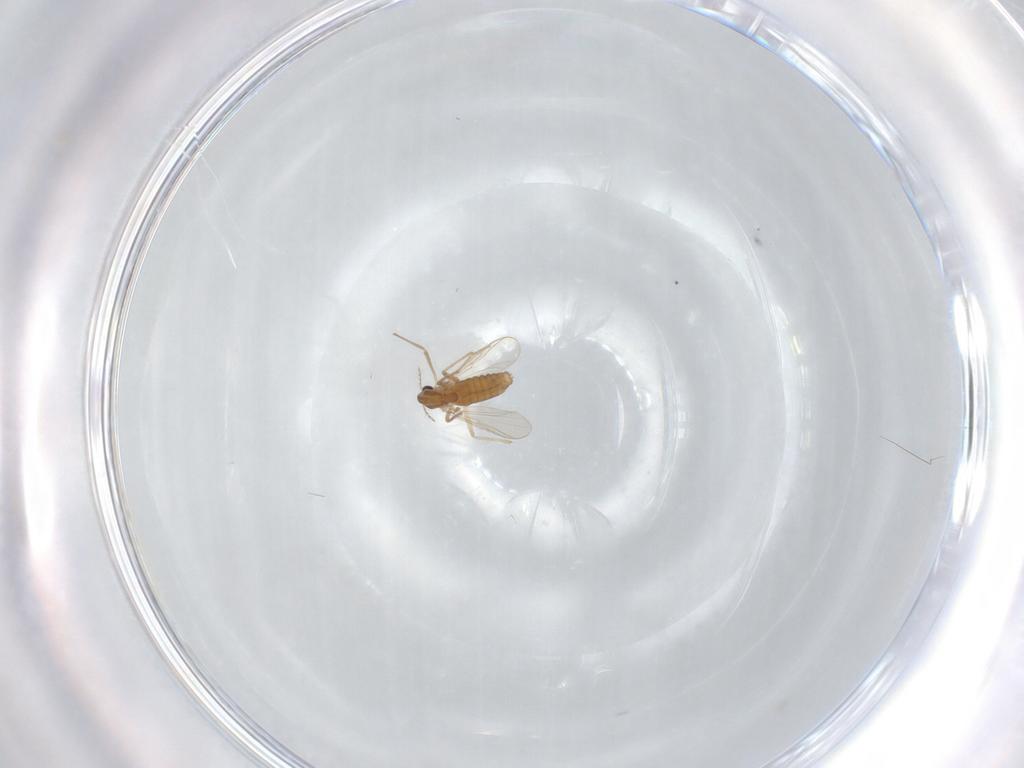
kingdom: Animalia
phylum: Arthropoda
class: Insecta
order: Diptera
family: Chironomidae
